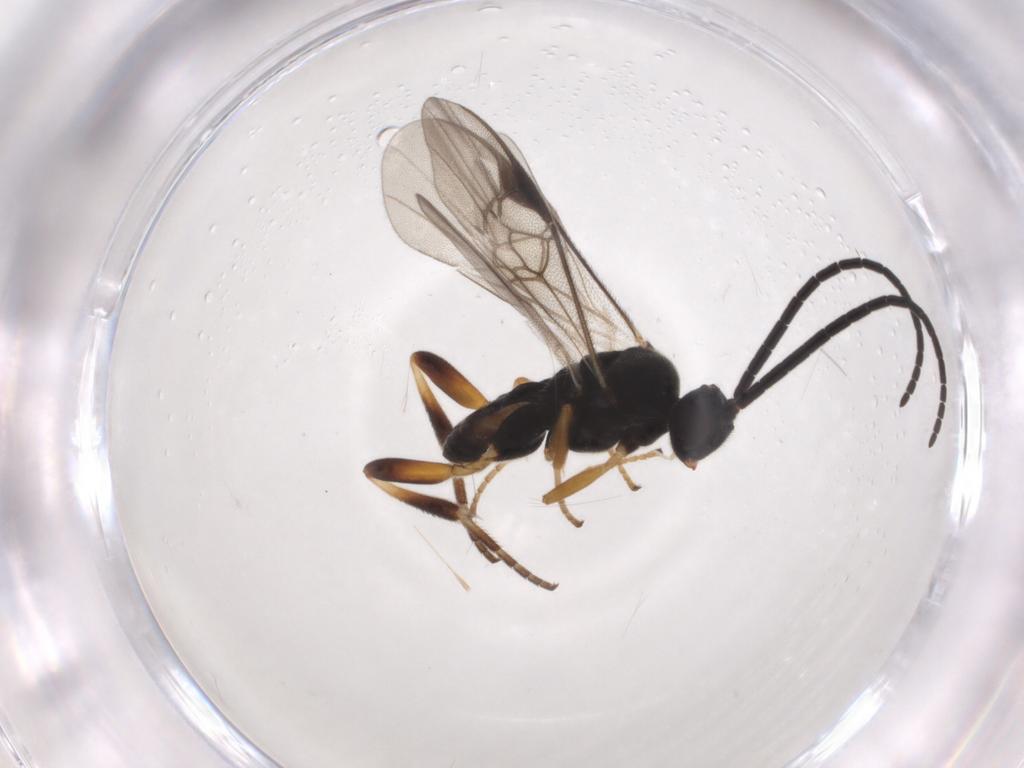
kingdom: Animalia
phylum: Arthropoda
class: Insecta
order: Hymenoptera
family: Braconidae
